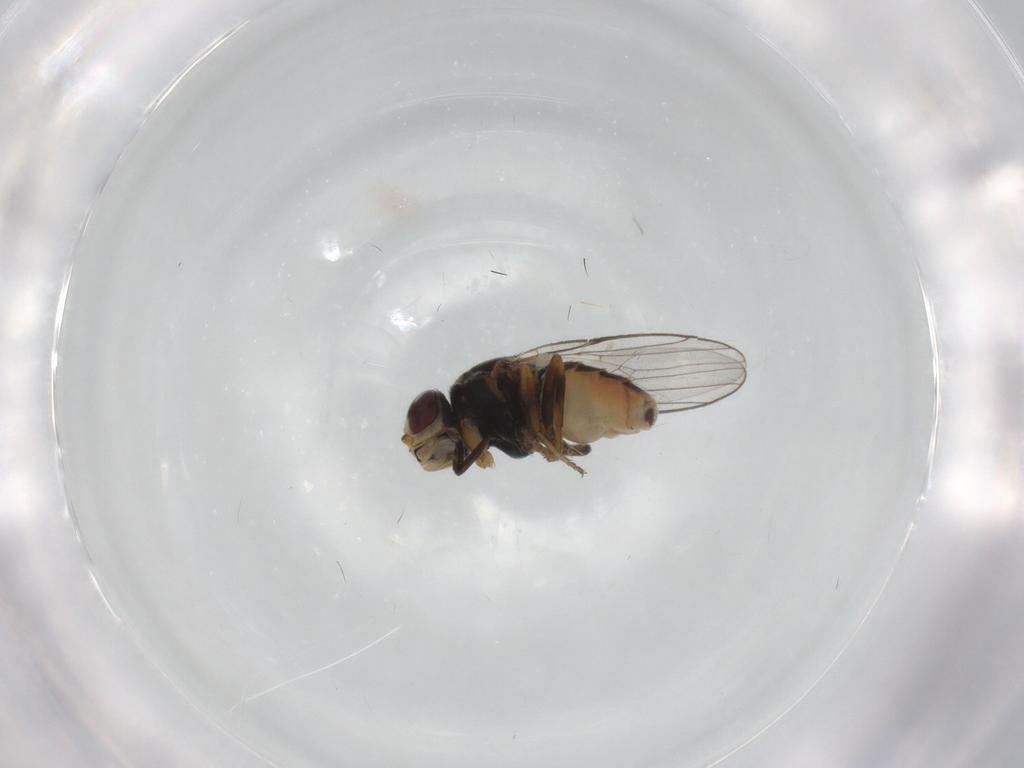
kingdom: Animalia
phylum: Arthropoda
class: Insecta
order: Diptera
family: Chloropidae
